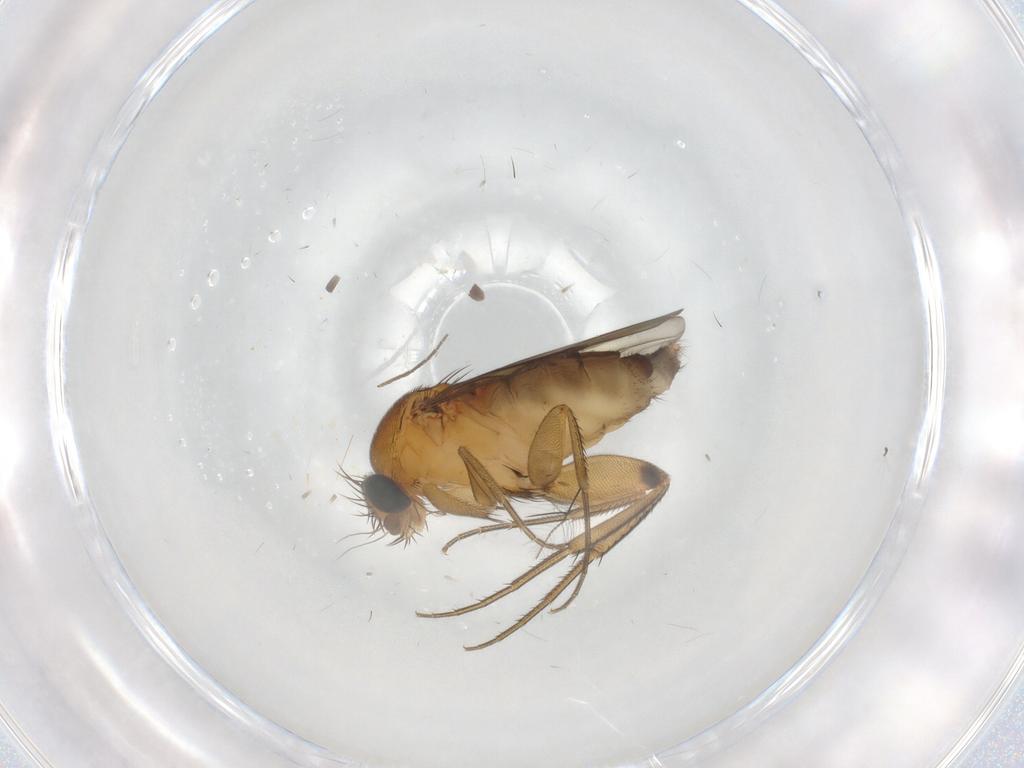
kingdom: Animalia
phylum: Arthropoda
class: Insecta
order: Diptera
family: Phoridae
